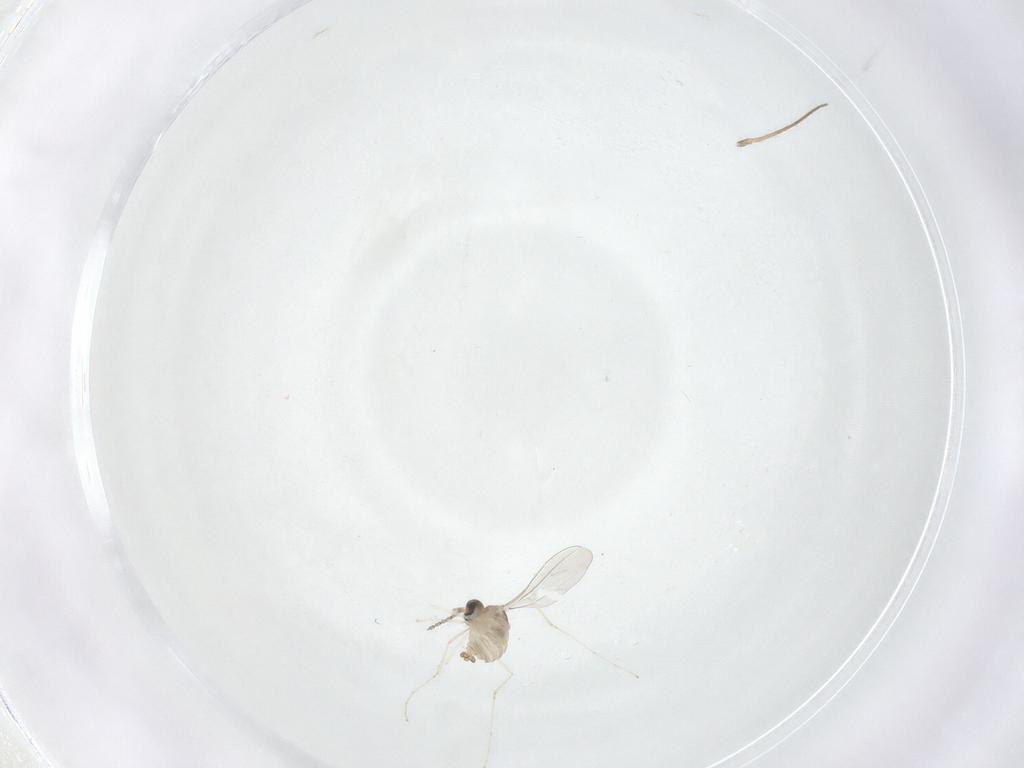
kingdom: Animalia
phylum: Arthropoda
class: Insecta
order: Diptera
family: Cecidomyiidae
